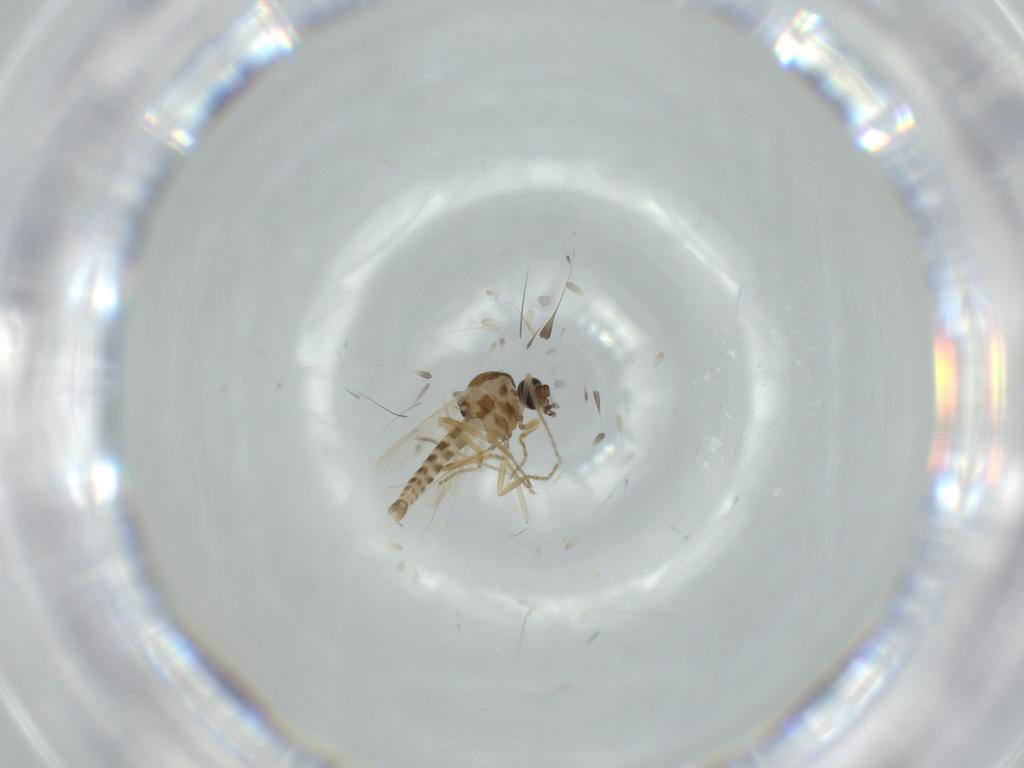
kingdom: Animalia
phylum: Arthropoda
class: Insecta
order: Diptera
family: Ceratopogonidae
